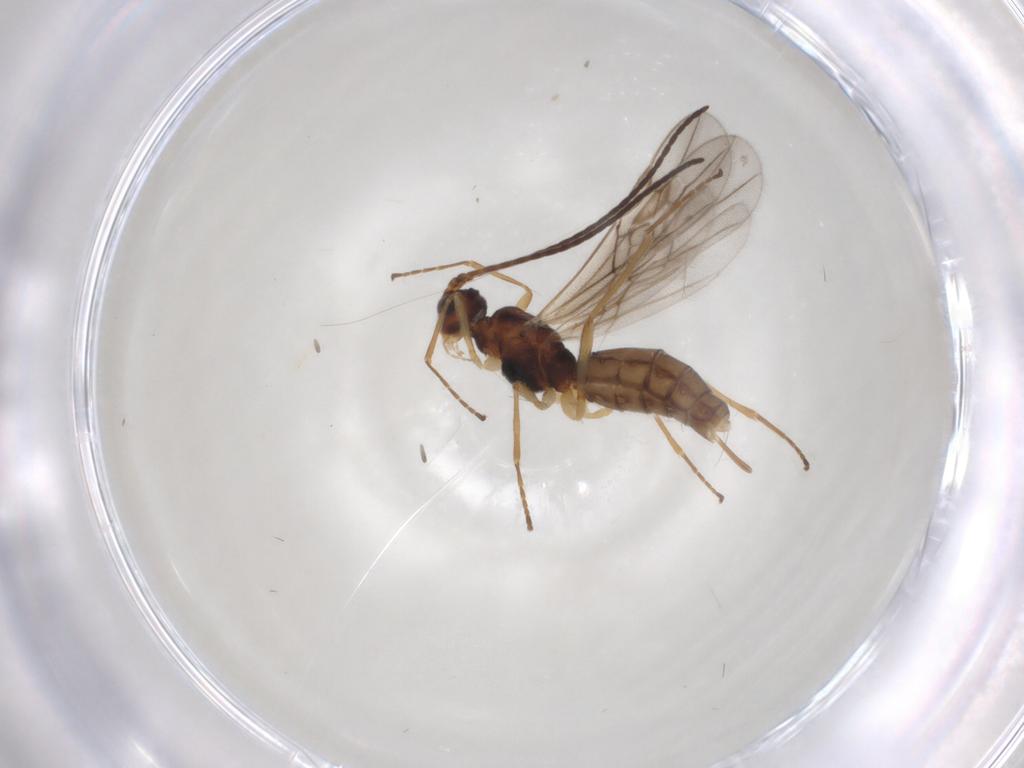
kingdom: Animalia
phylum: Arthropoda
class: Insecta
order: Hymenoptera
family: Braconidae
